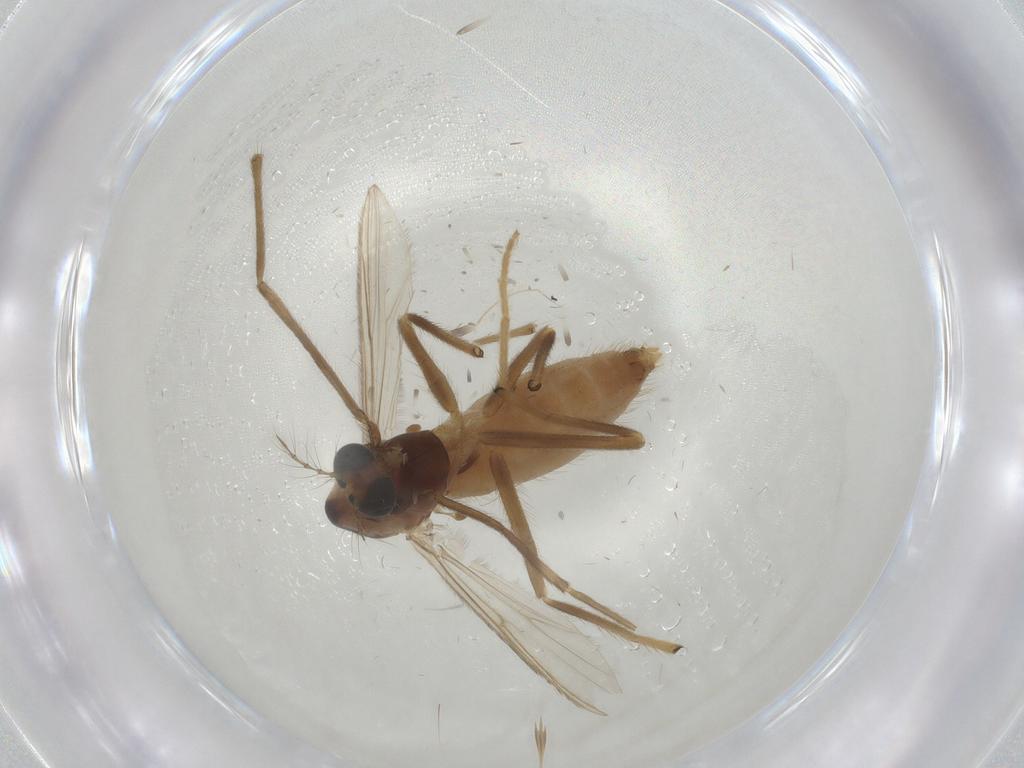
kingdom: Animalia
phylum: Arthropoda
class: Insecta
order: Diptera
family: Chironomidae
